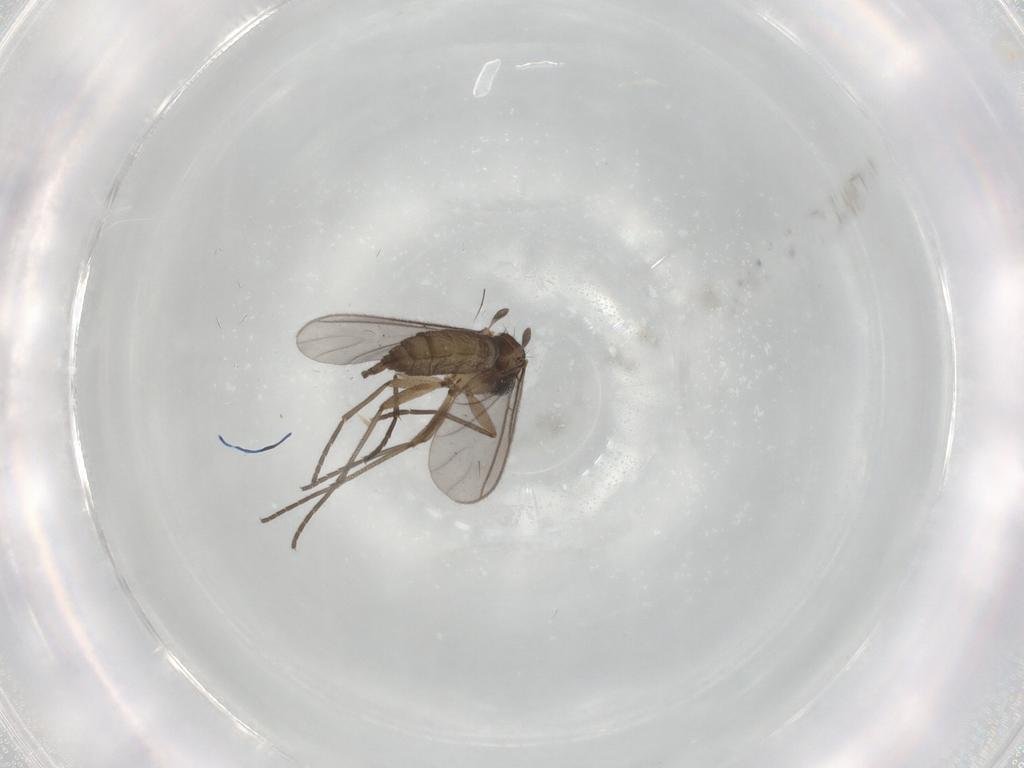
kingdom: Animalia
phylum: Arthropoda
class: Insecta
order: Diptera
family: Sciaridae
